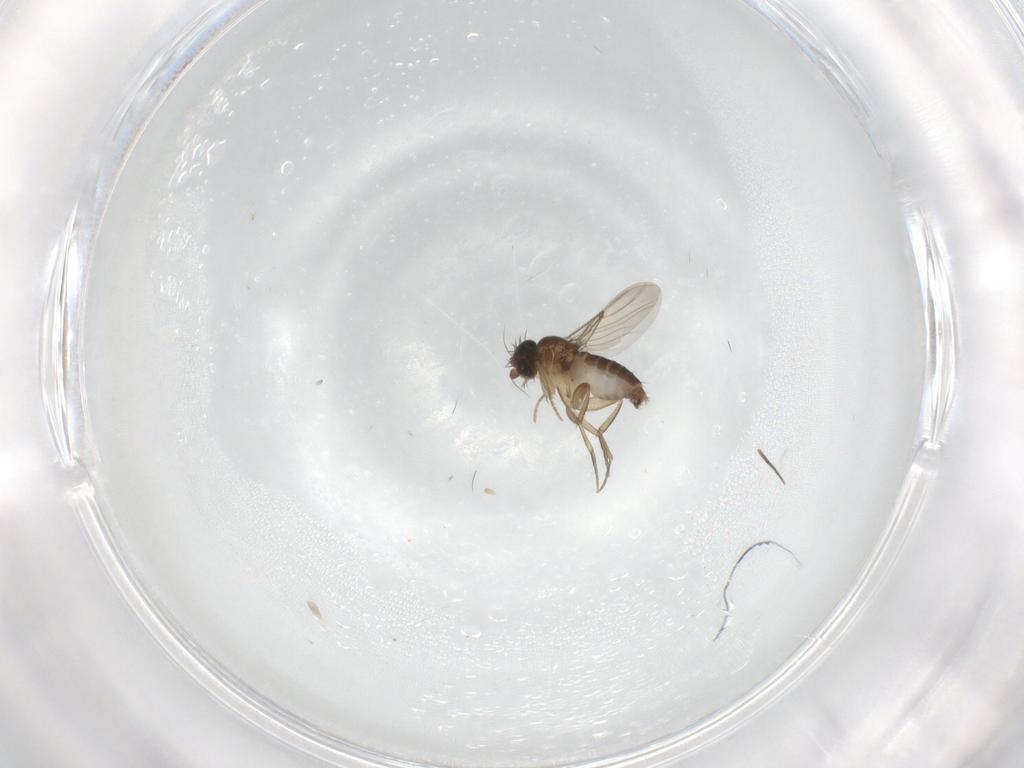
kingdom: Animalia
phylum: Arthropoda
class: Insecta
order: Diptera
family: Phoridae
